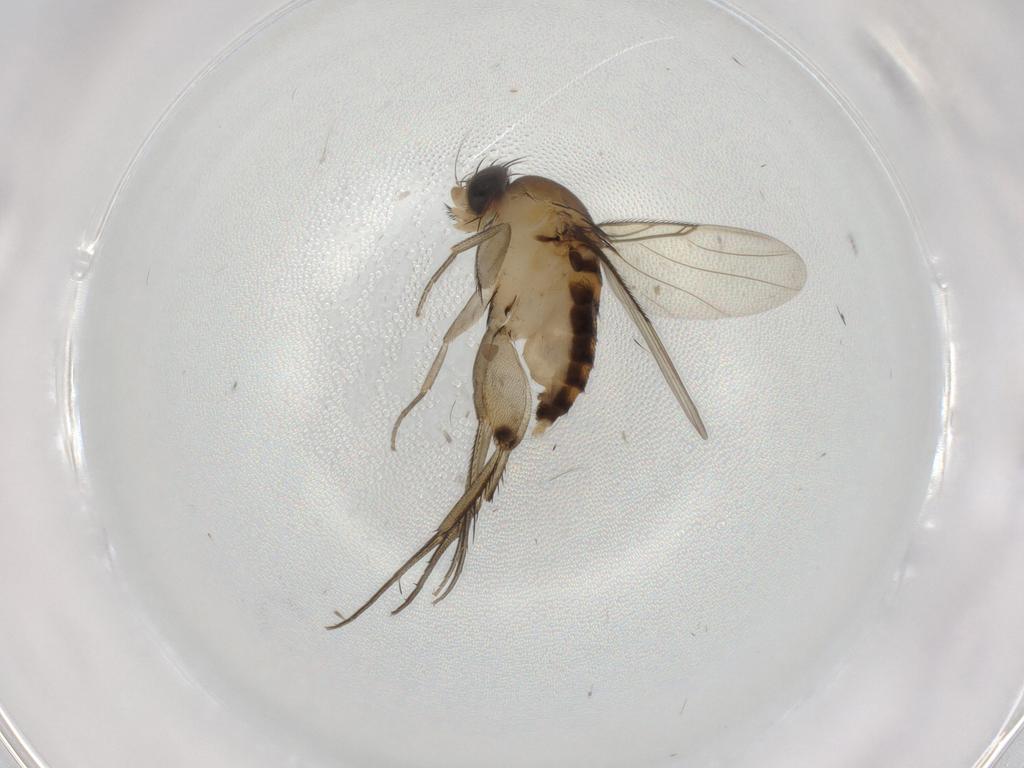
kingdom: Animalia
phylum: Arthropoda
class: Insecta
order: Diptera
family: Phoridae
